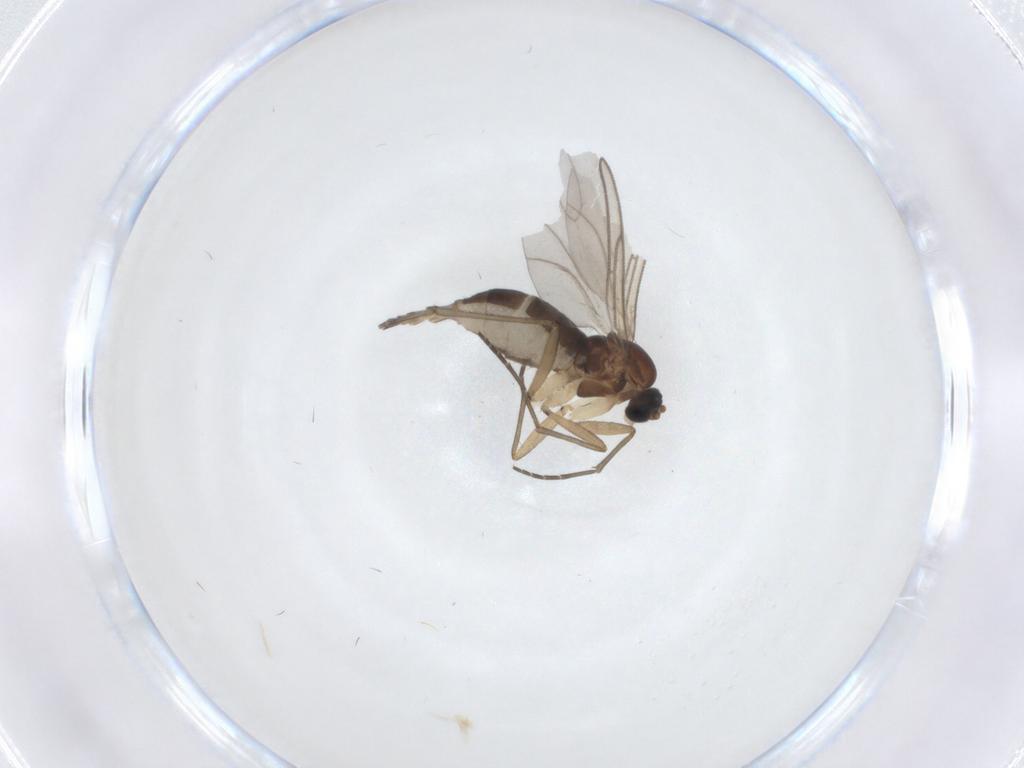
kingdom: Animalia
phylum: Arthropoda
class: Insecta
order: Diptera
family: Sciaridae
